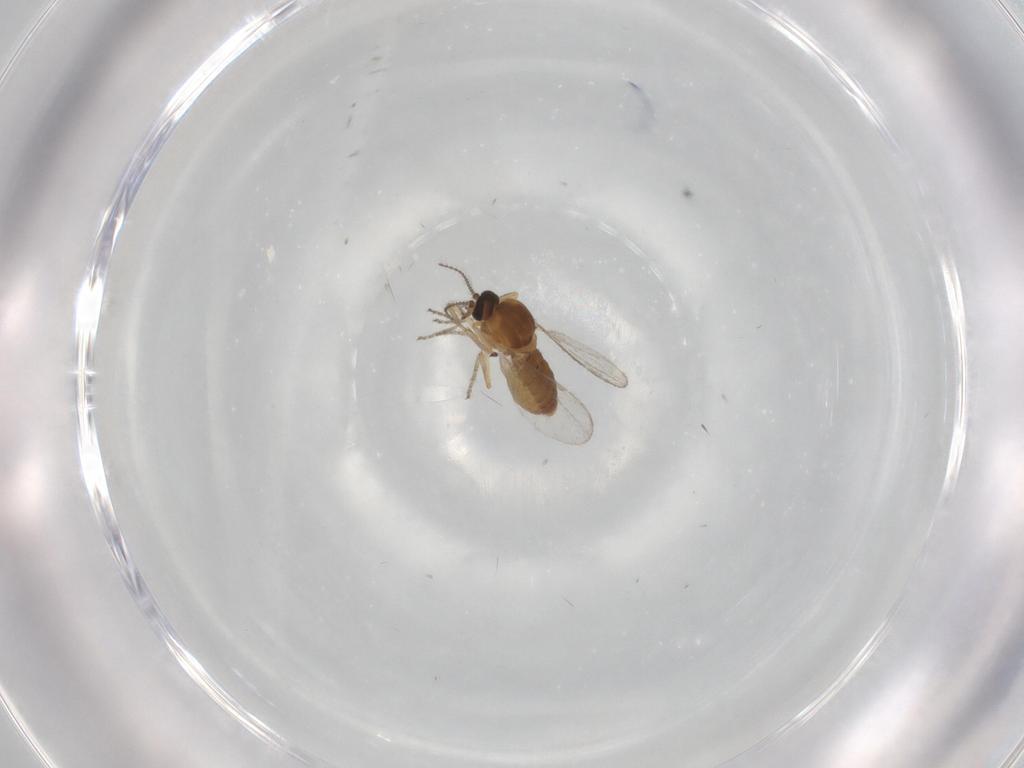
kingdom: Animalia
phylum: Arthropoda
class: Insecta
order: Diptera
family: Ceratopogonidae
